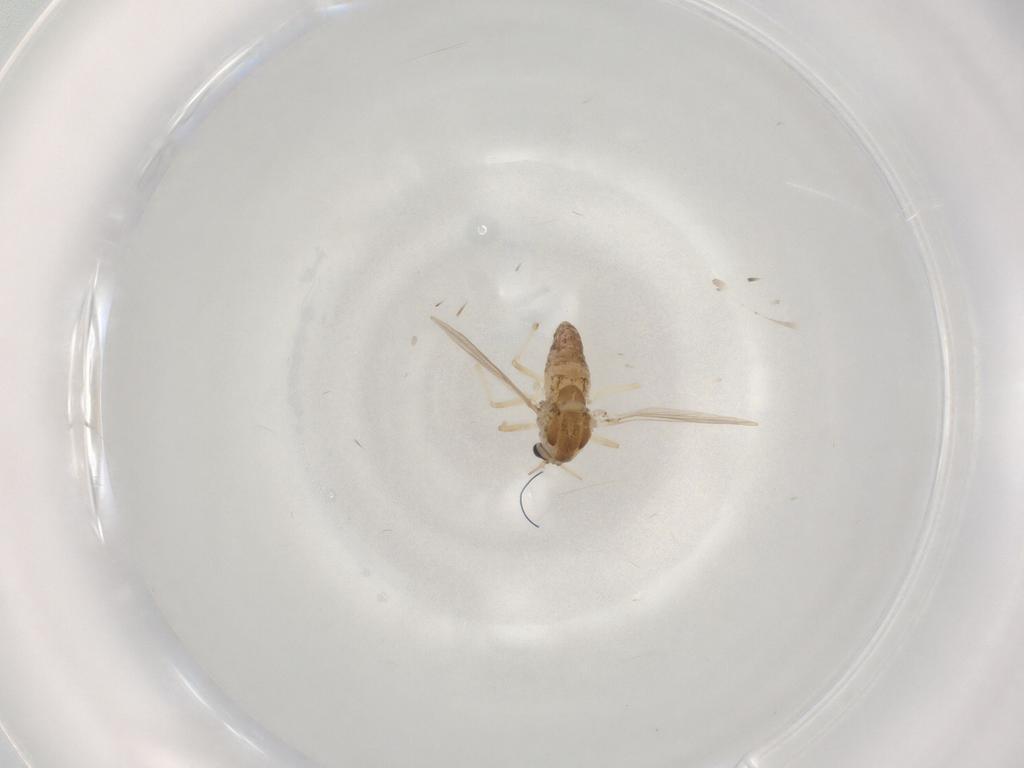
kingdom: Animalia
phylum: Arthropoda
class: Insecta
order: Diptera
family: Chironomidae
